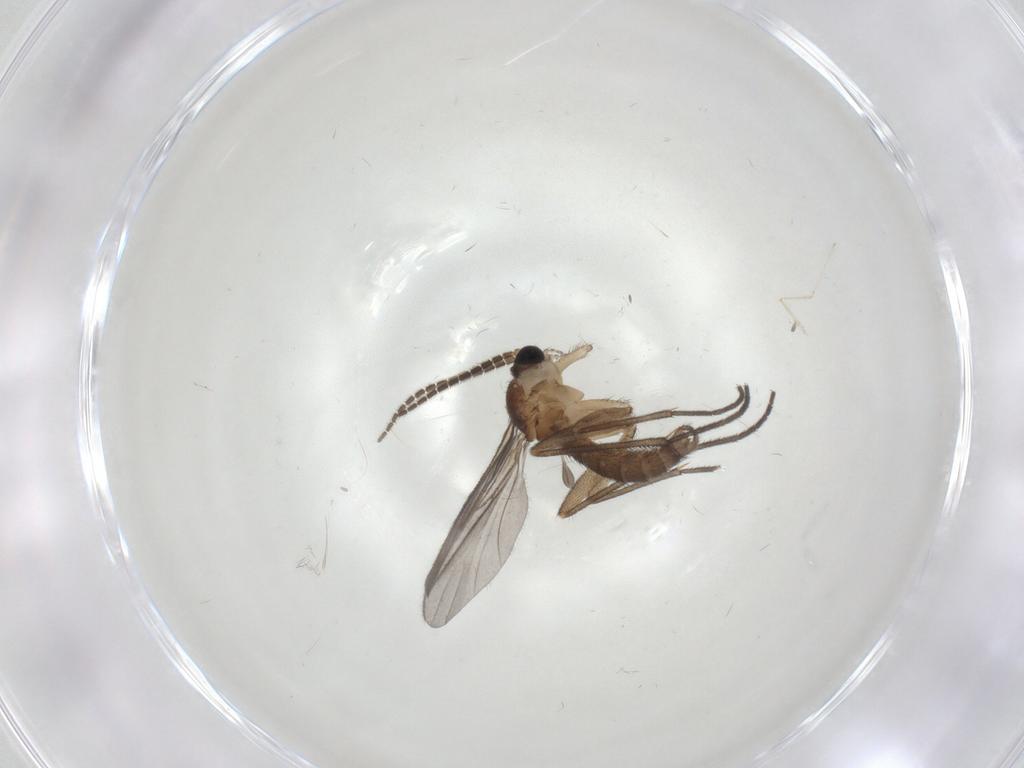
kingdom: Animalia
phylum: Arthropoda
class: Insecta
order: Diptera
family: Sciaridae
